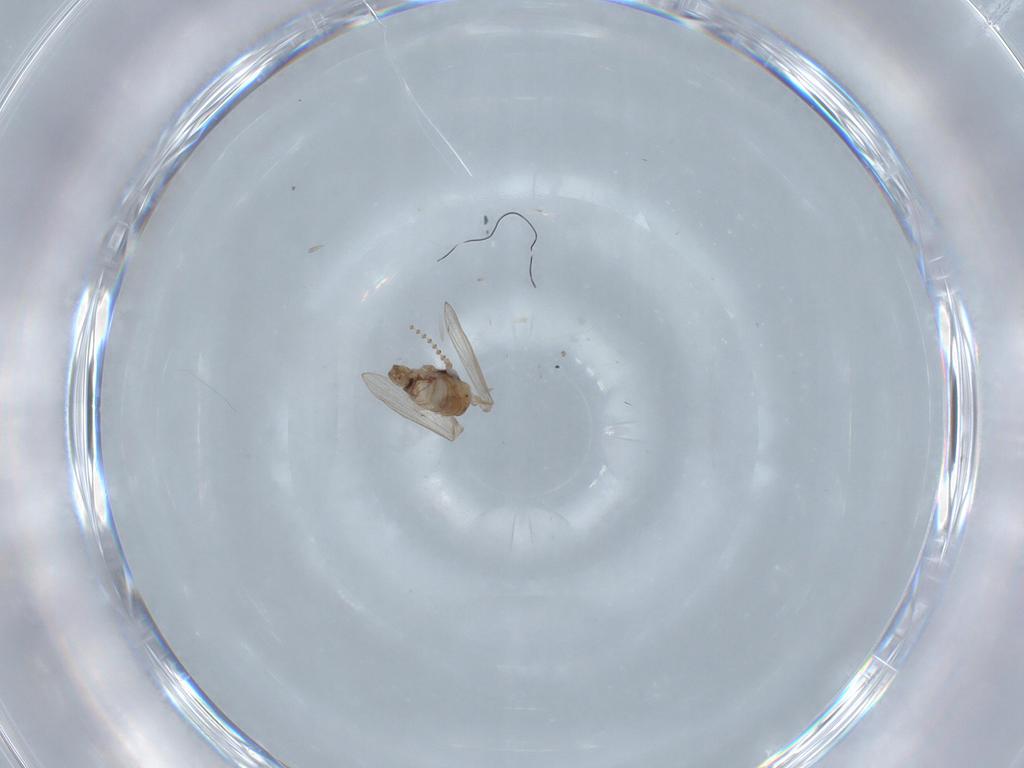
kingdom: Animalia
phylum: Arthropoda
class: Insecta
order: Diptera
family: Psychodidae
